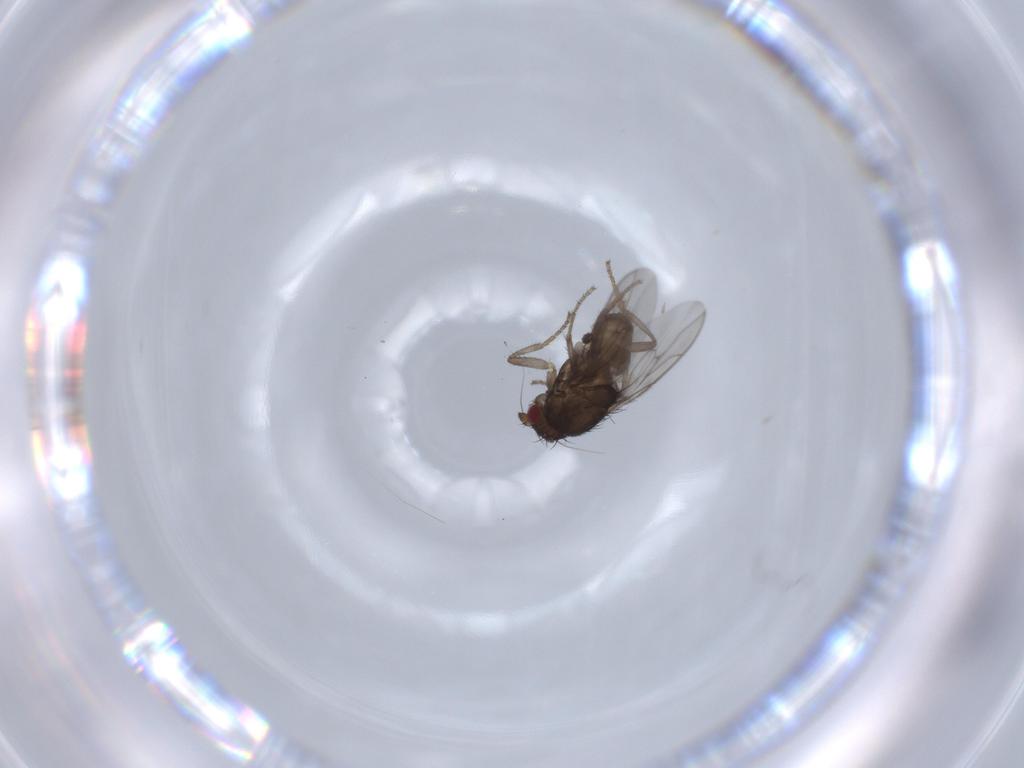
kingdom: Animalia
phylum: Arthropoda
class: Insecta
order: Diptera
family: Sphaeroceridae
